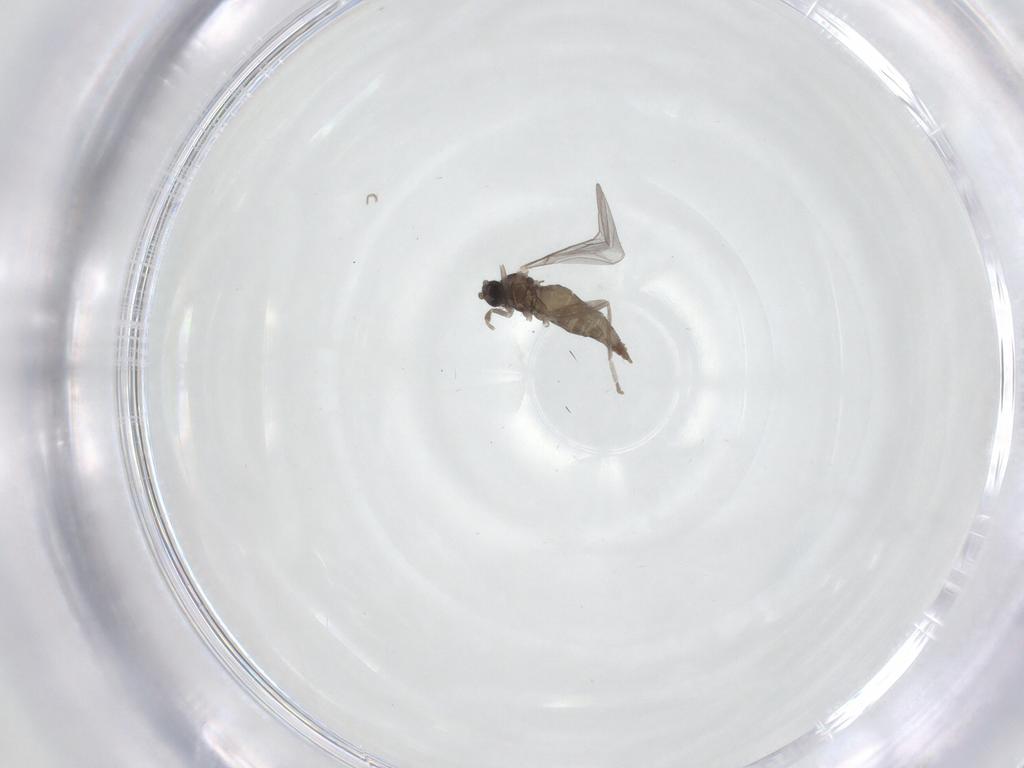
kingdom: Animalia
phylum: Arthropoda
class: Insecta
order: Diptera
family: Cecidomyiidae
